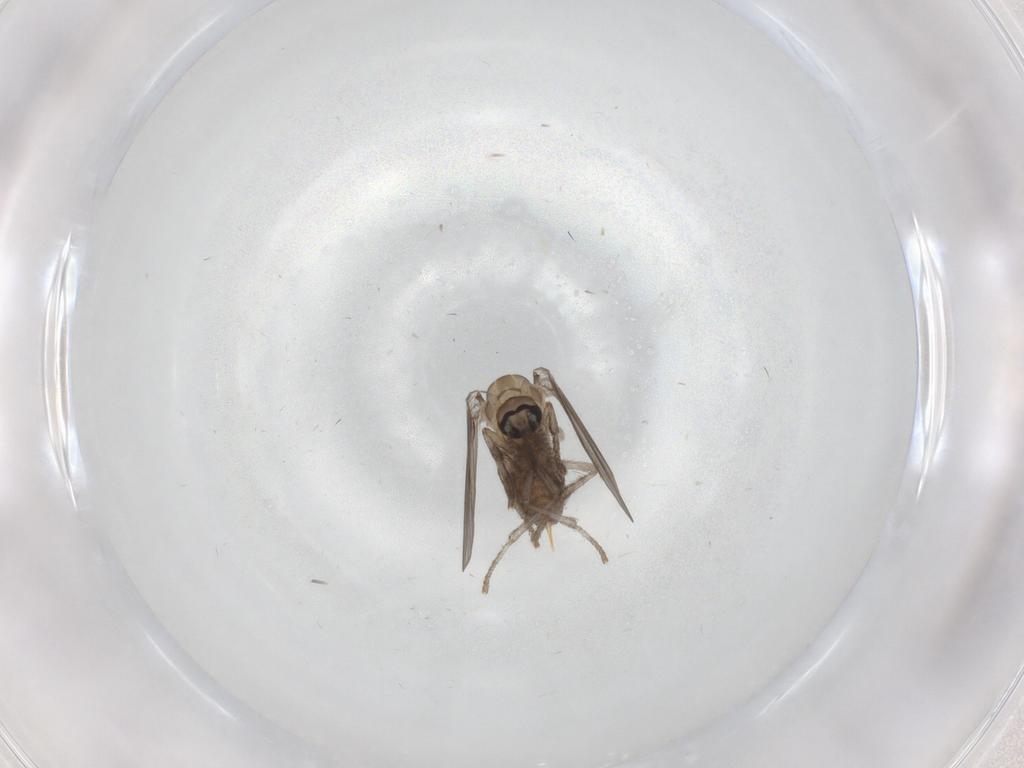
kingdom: Animalia
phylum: Arthropoda
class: Insecta
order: Diptera
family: Psychodidae
